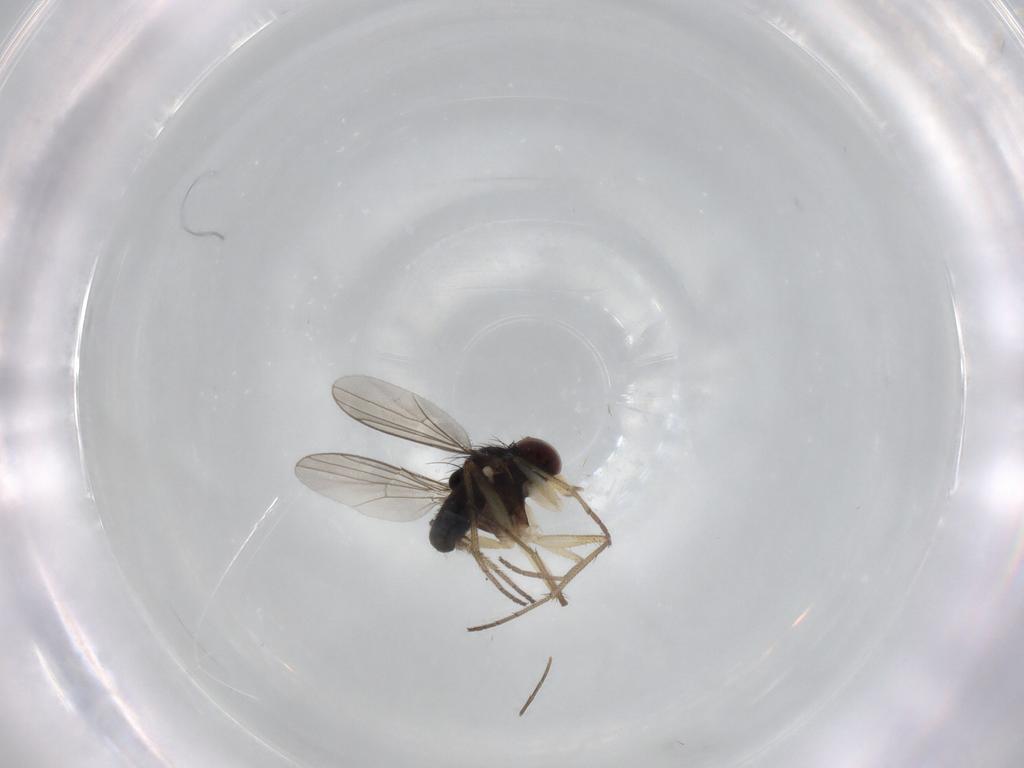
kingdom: Animalia
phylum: Arthropoda
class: Insecta
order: Diptera
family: Dolichopodidae
